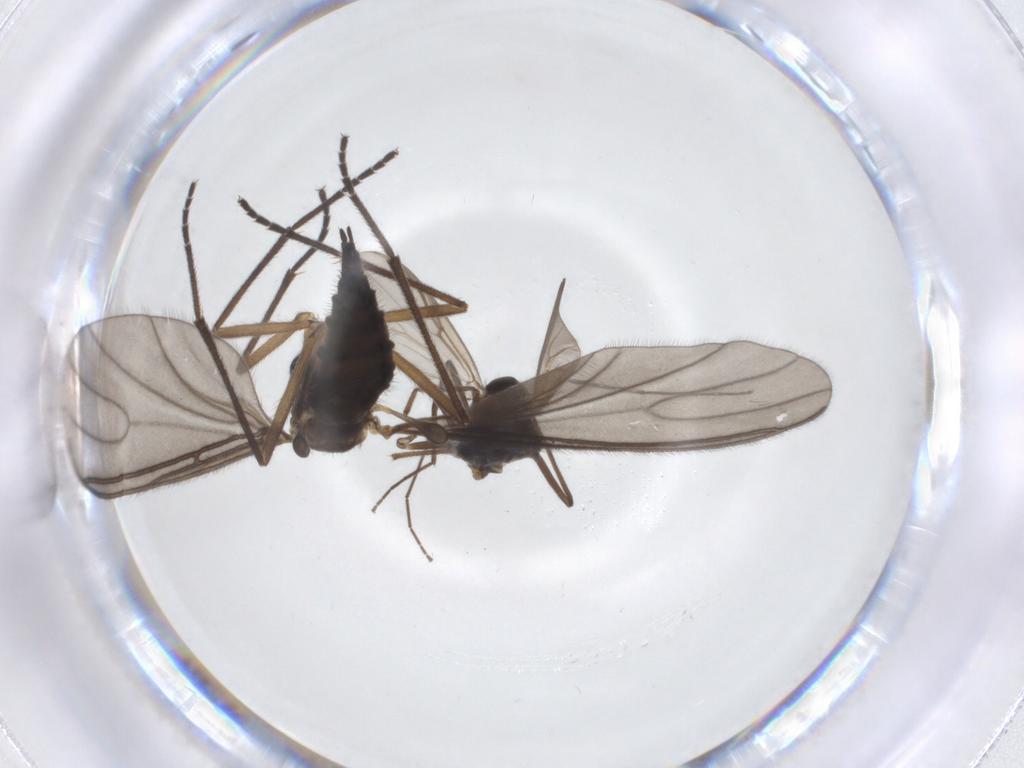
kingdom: Animalia
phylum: Arthropoda
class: Insecta
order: Diptera
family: Chironomidae
